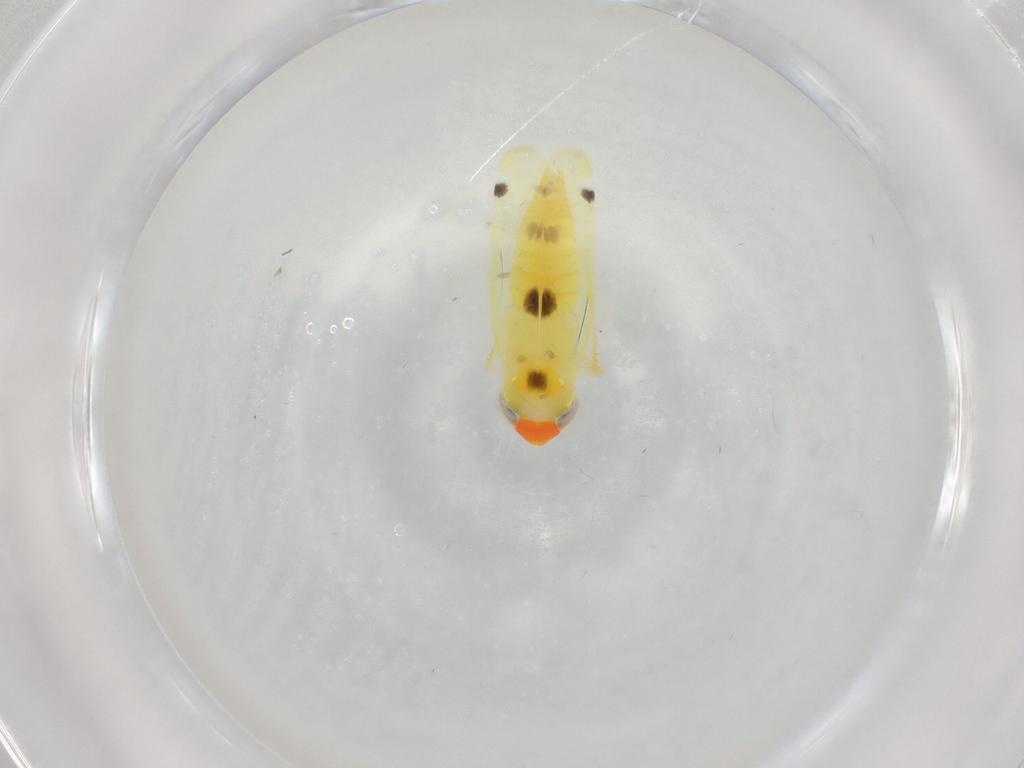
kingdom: Animalia
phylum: Arthropoda
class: Insecta
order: Hemiptera
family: Cicadellidae
